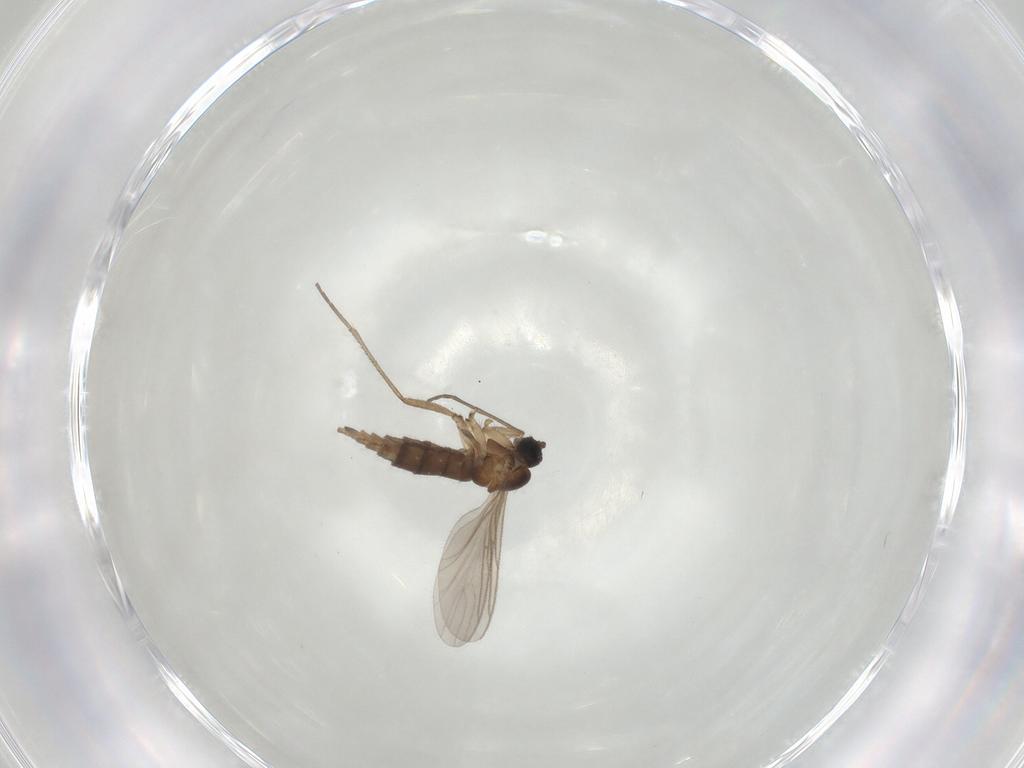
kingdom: Animalia
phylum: Arthropoda
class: Insecta
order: Diptera
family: Sciaridae
